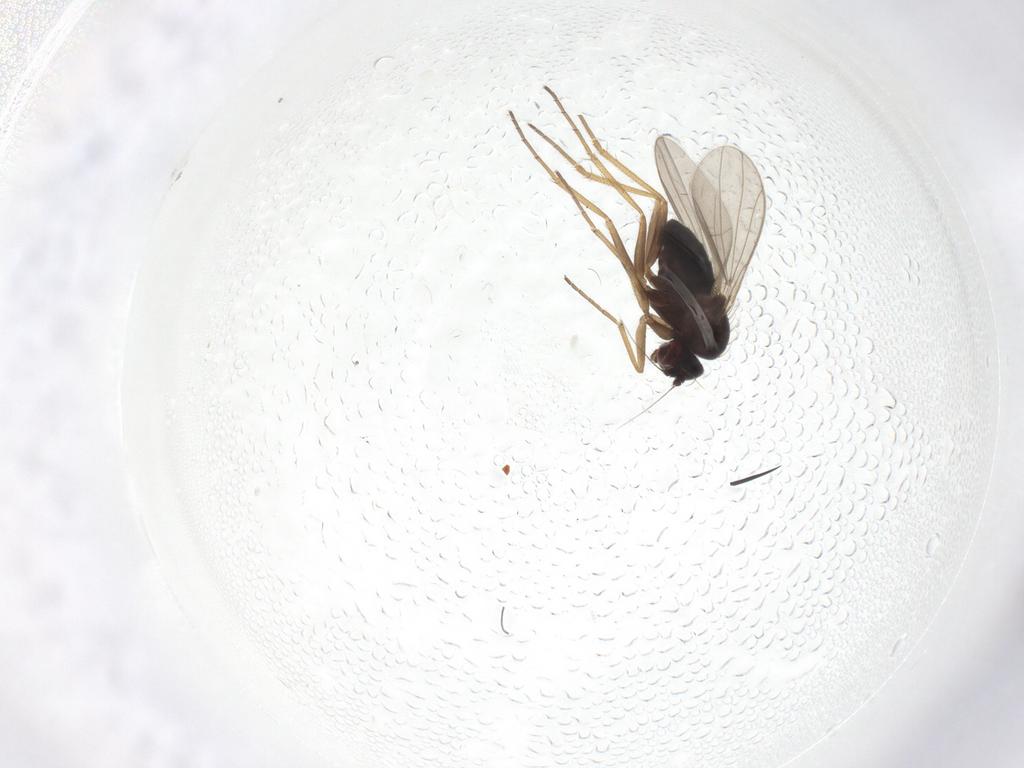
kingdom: Animalia
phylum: Arthropoda
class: Insecta
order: Diptera
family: Dolichopodidae
